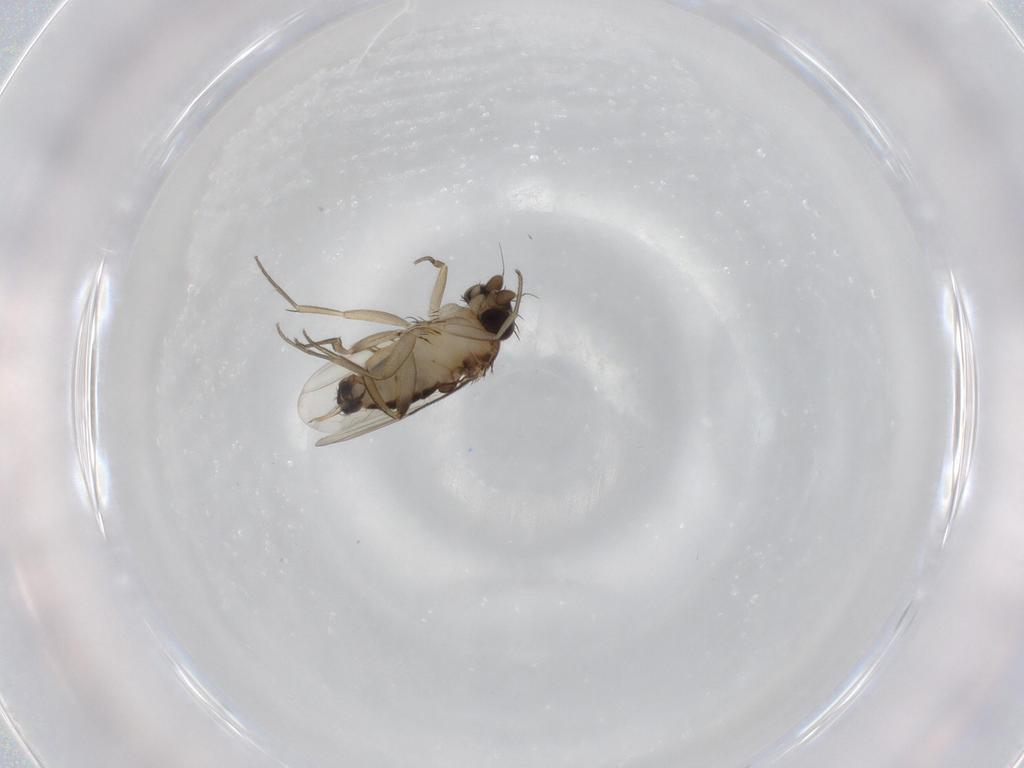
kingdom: Animalia
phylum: Arthropoda
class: Insecta
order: Diptera
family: Phoridae
